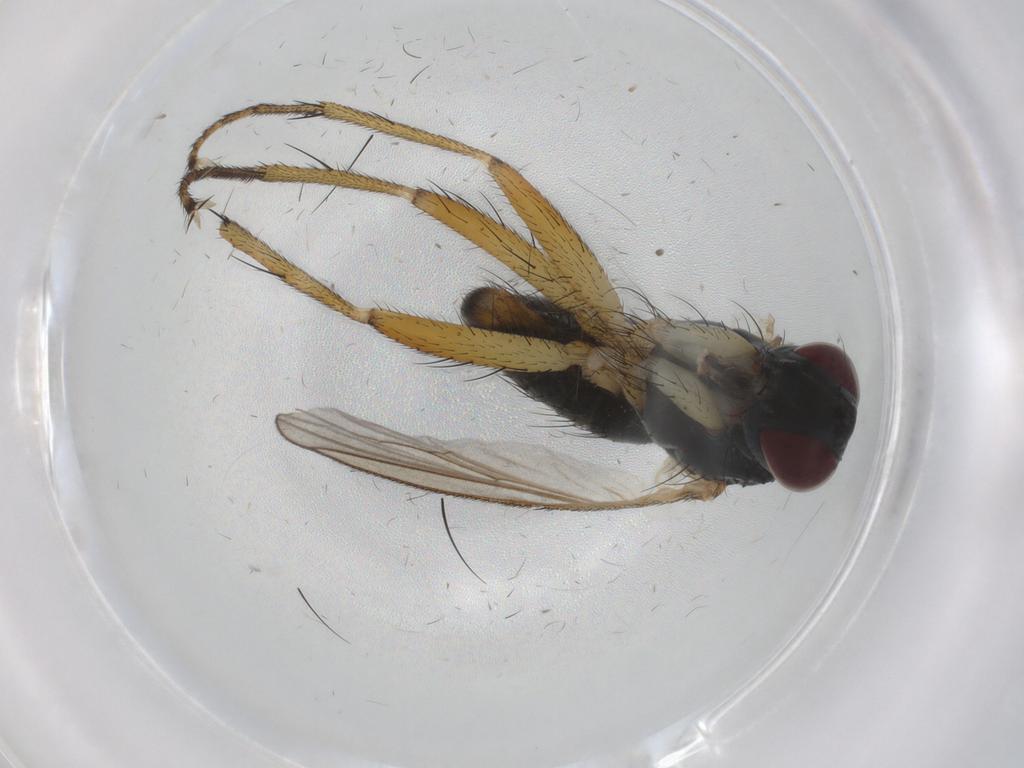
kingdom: Animalia
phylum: Arthropoda
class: Insecta
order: Diptera
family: Muscidae
